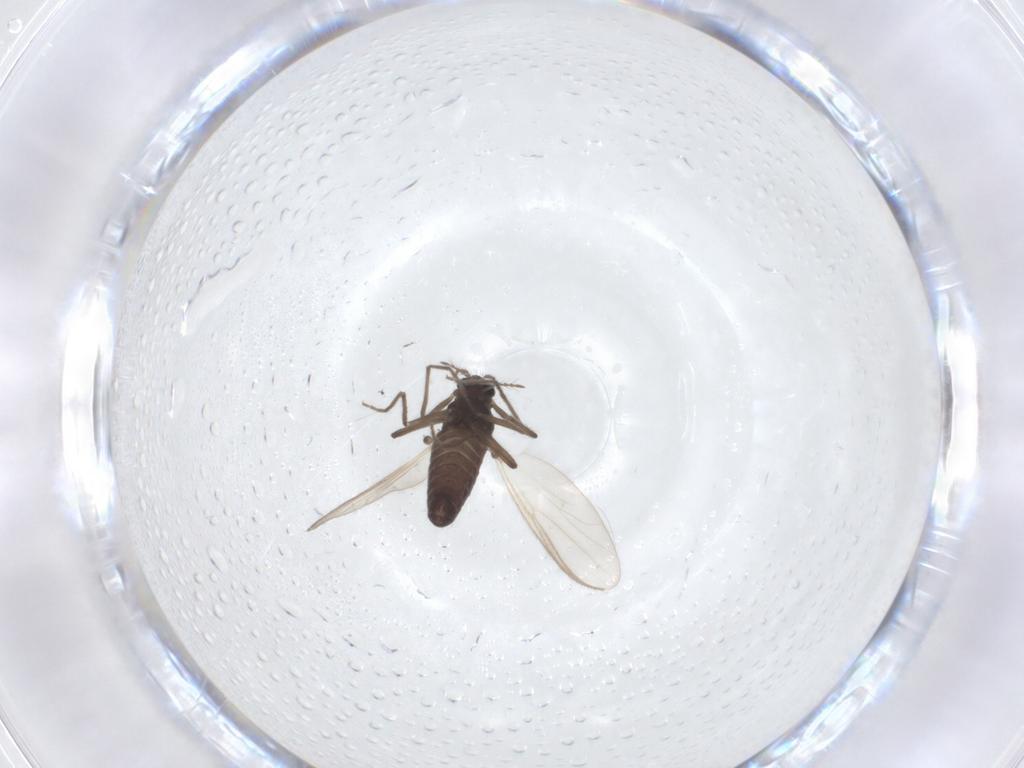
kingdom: Animalia
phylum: Arthropoda
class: Insecta
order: Diptera
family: Chironomidae
